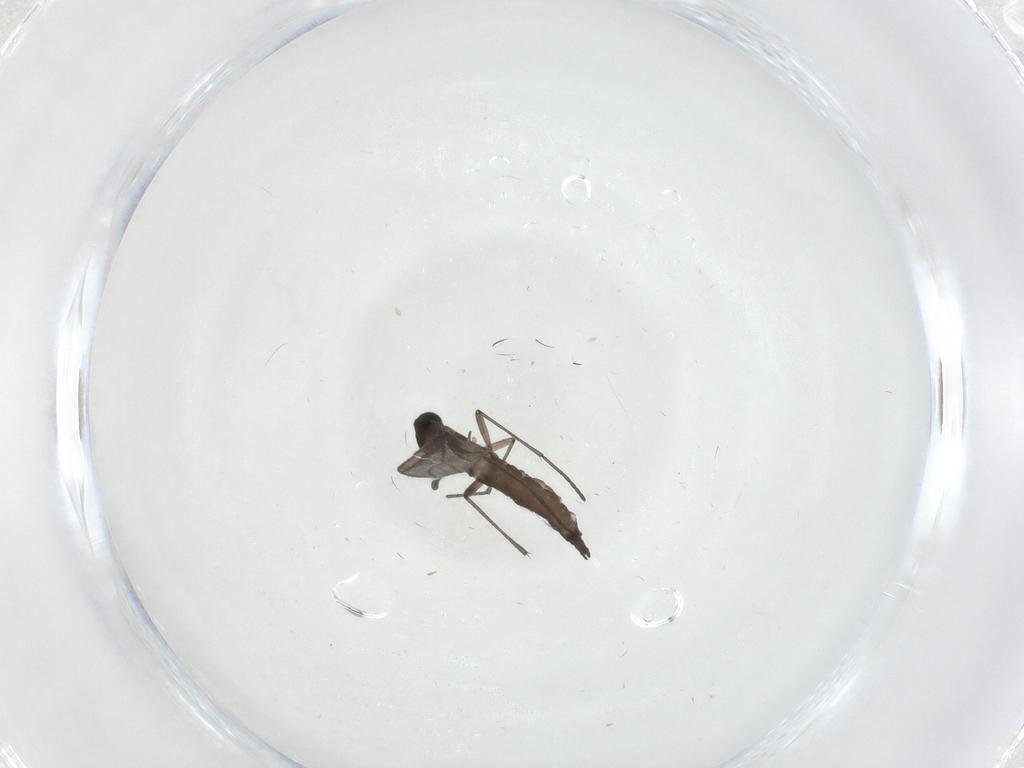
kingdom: Animalia
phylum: Arthropoda
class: Insecta
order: Diptera
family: Sciaridae
